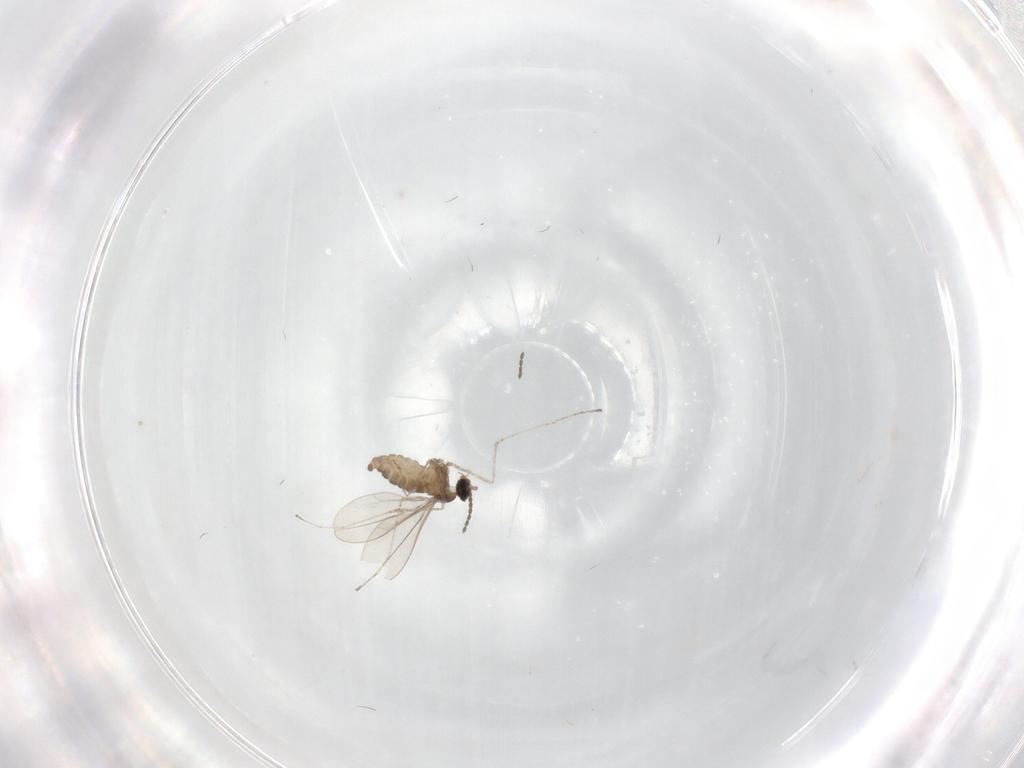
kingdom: Animalia
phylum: Arthropoda
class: Insecta
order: Diptera
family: Cecidomyiidae
